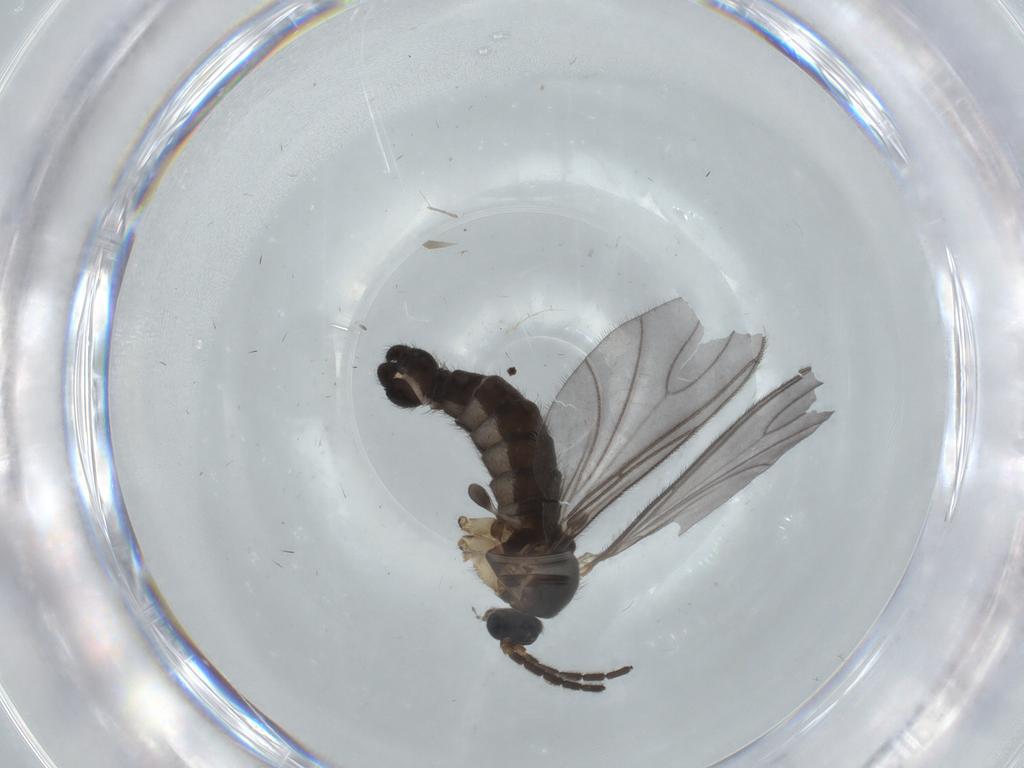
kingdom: Animalia
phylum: Arthropoda
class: Insecta
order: Diptera
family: Sciaridae
